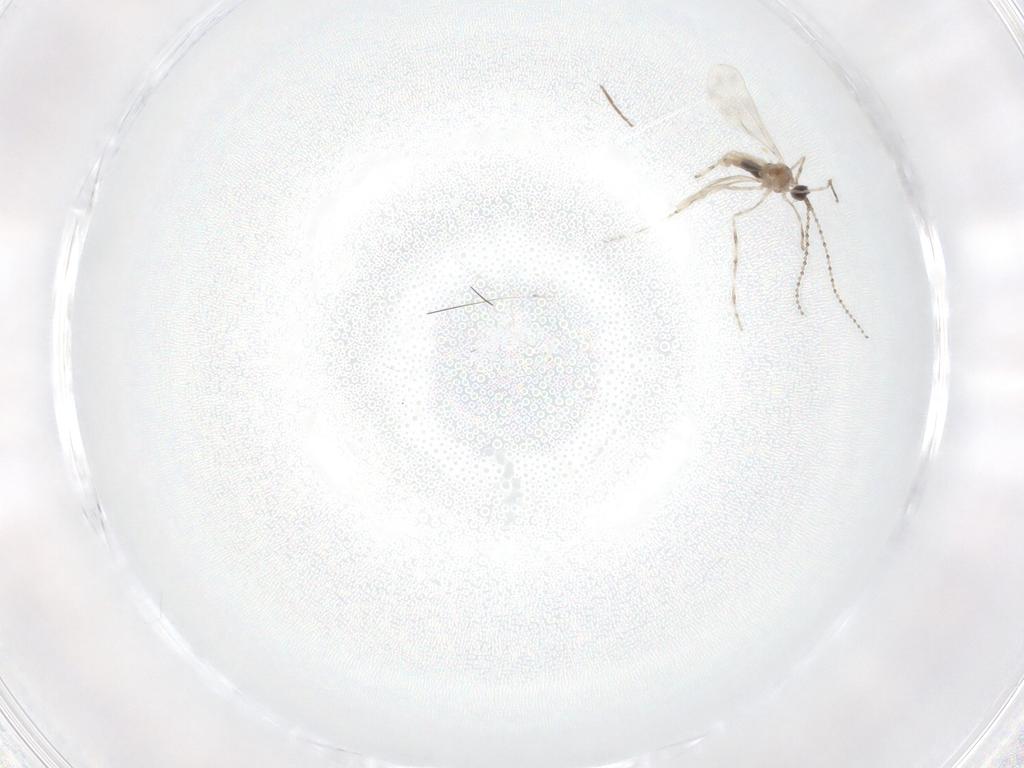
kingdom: Animalia
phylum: Arthropoda
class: Insecta
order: Diptera
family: Cecidomyiidae
